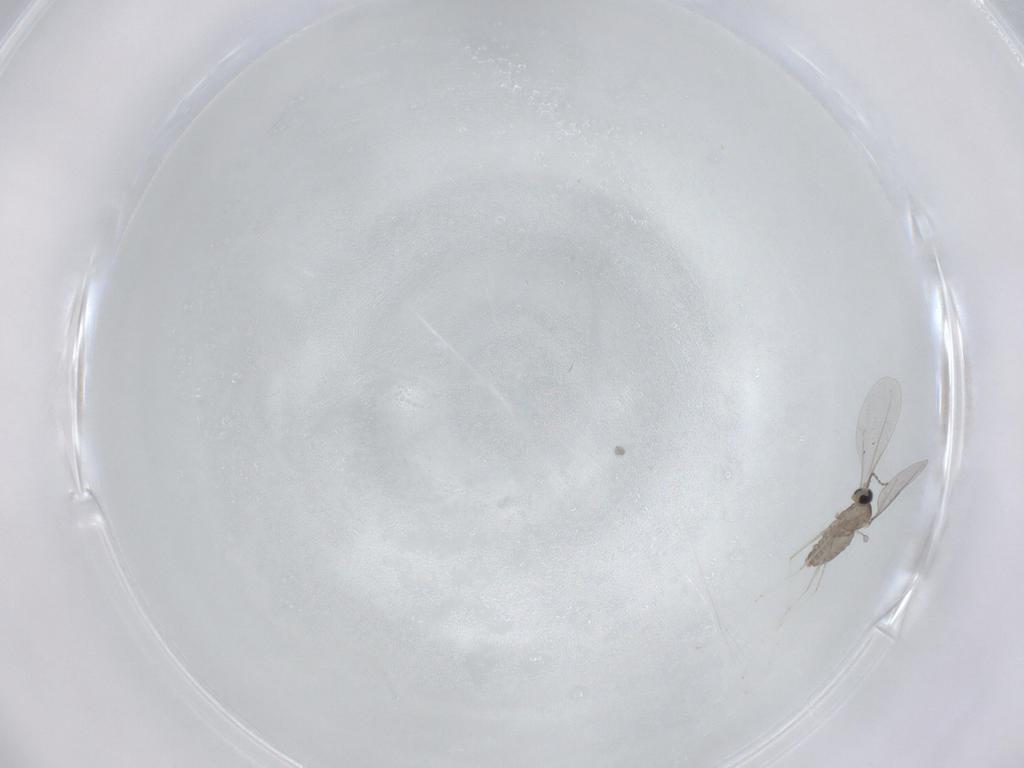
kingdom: Animalia
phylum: Arthropoda
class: Insecta
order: Diptera
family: Cecidomyiidae
